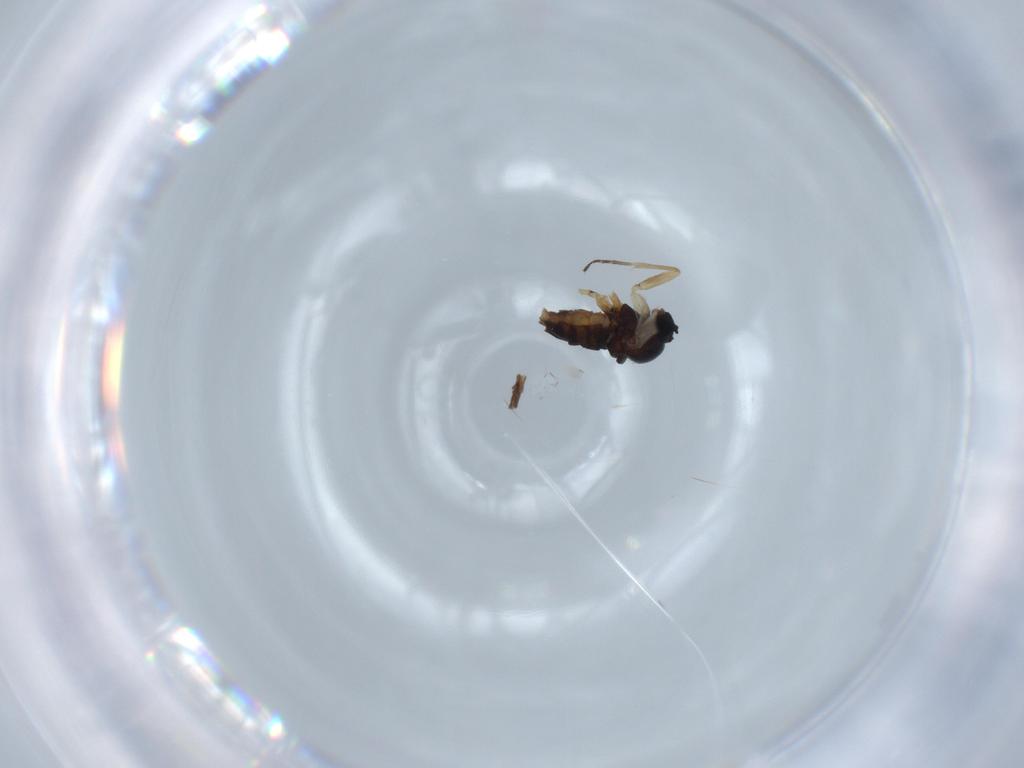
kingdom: Animalia
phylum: Arthropoda
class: Insecta
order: Diptera
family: Sciaridae
